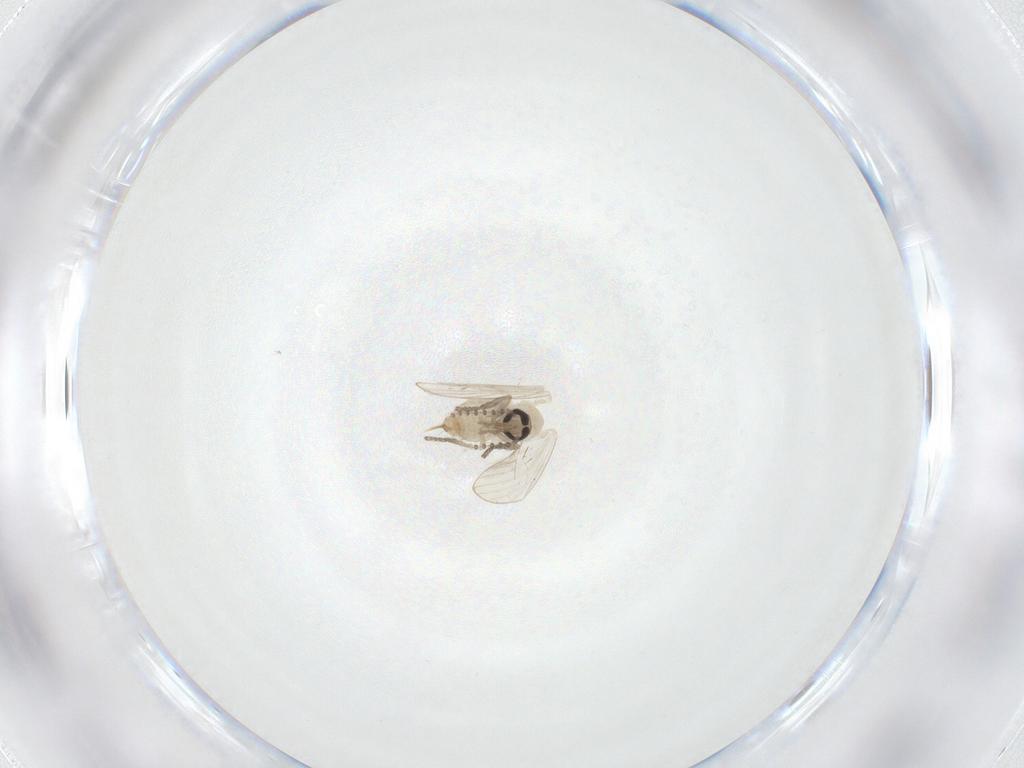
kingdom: Animalia
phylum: Arthropoda
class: Insecta
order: Diptera
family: Psychodidae
